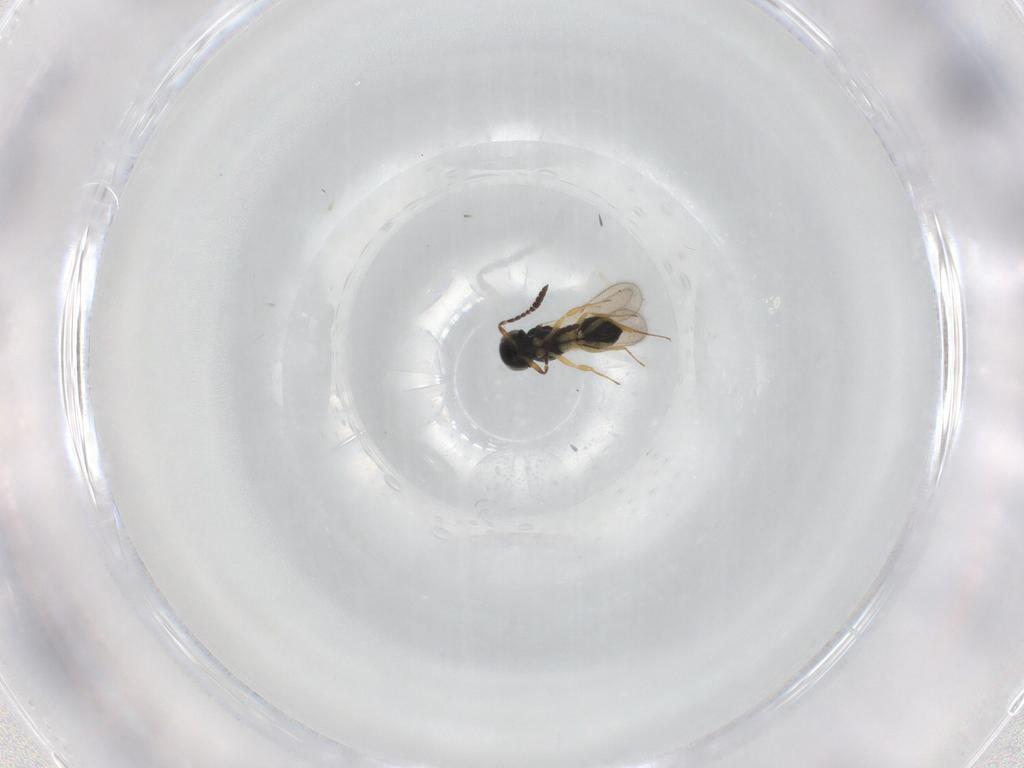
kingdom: Animalia
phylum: Arthropoda
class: Insecta
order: Hymenoptera
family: Scelionidae
